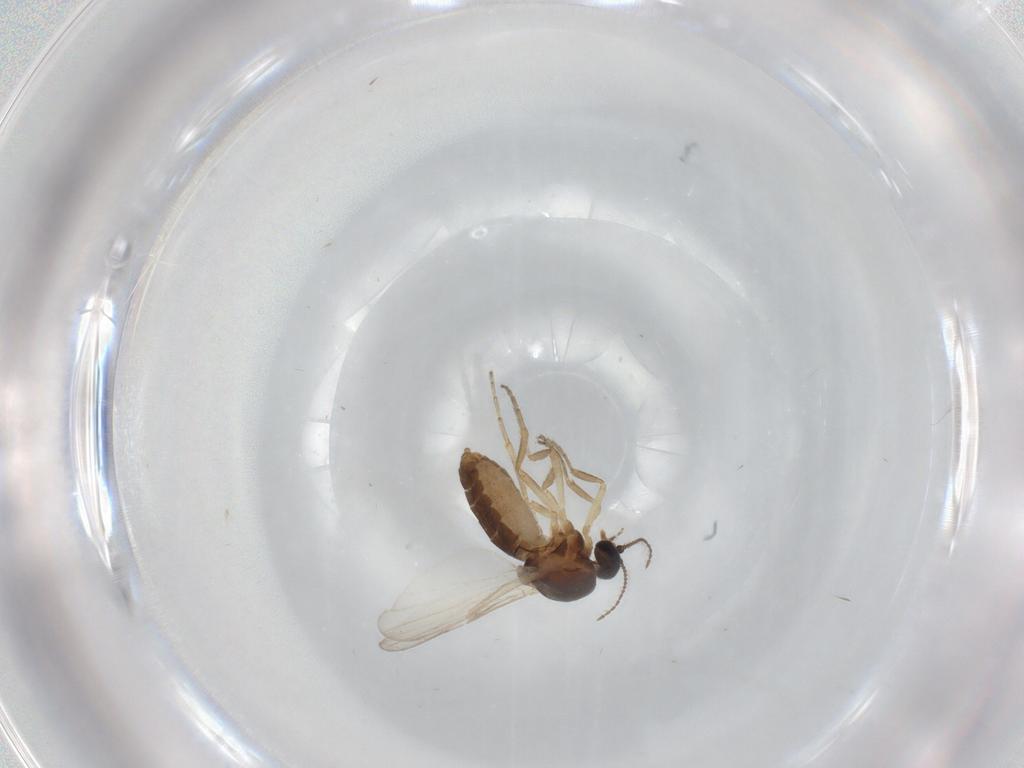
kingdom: Animalia
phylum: Arthropoda
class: Insecta
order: Diptera
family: Ceratopogonidae
